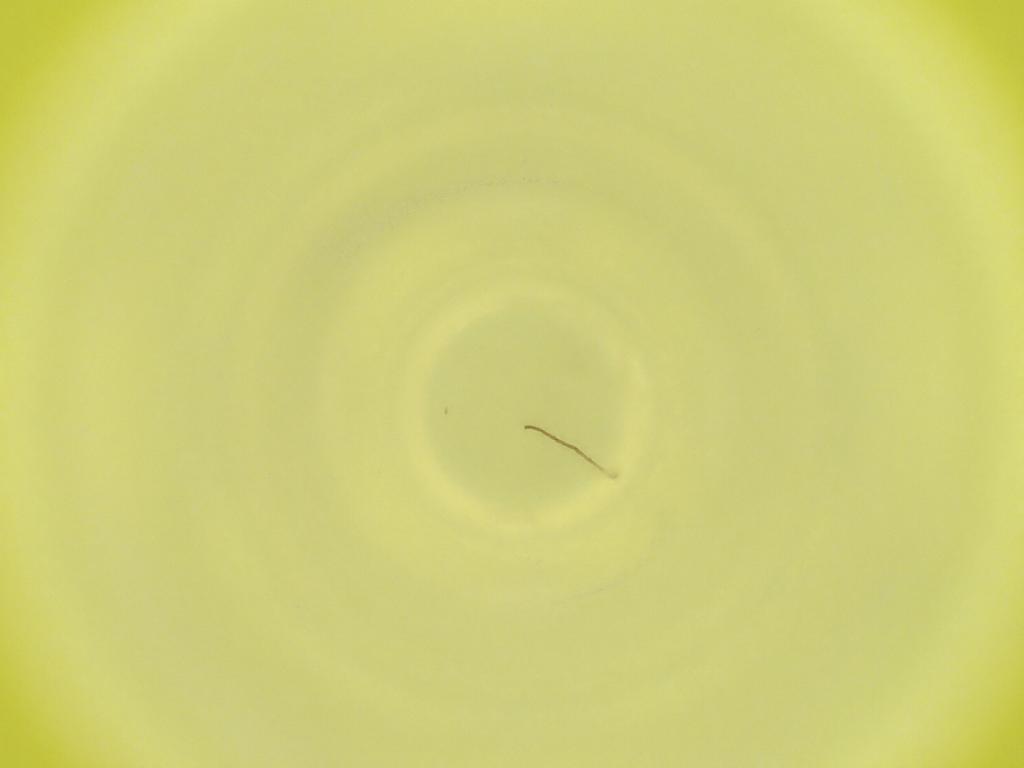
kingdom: Animalia
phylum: Arthropoda
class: Insecta
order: Diptera
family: Cecidomyiidae
